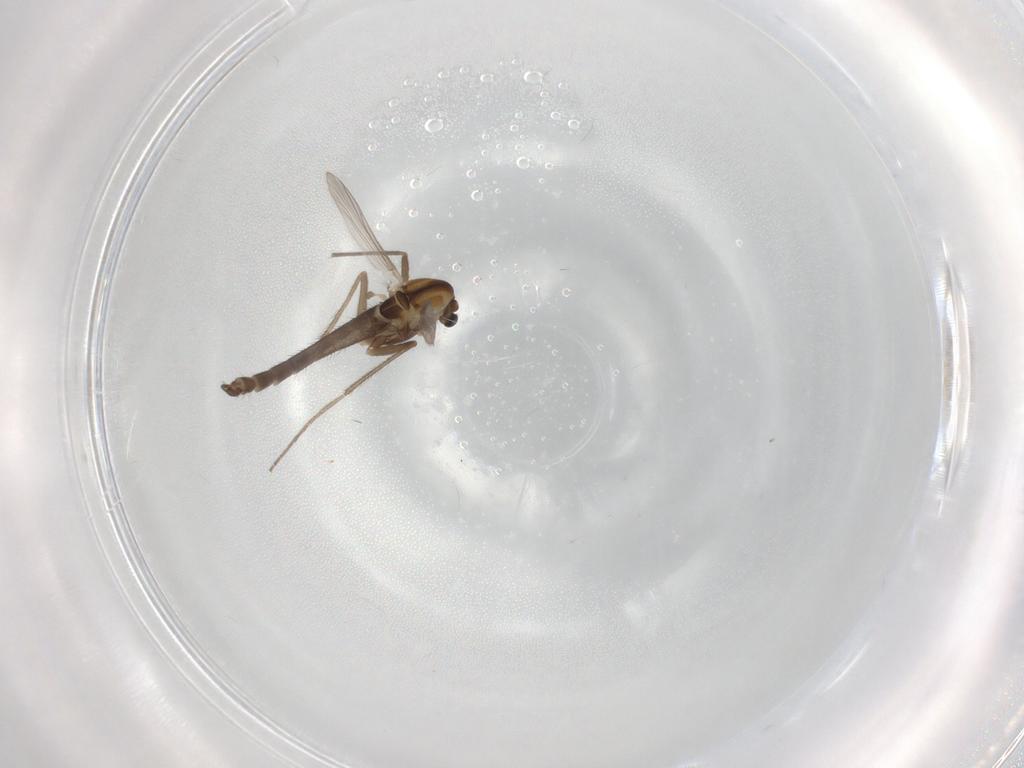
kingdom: Animalia
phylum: Arthropoda
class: Insecta
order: Diptera
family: Chironomidae
